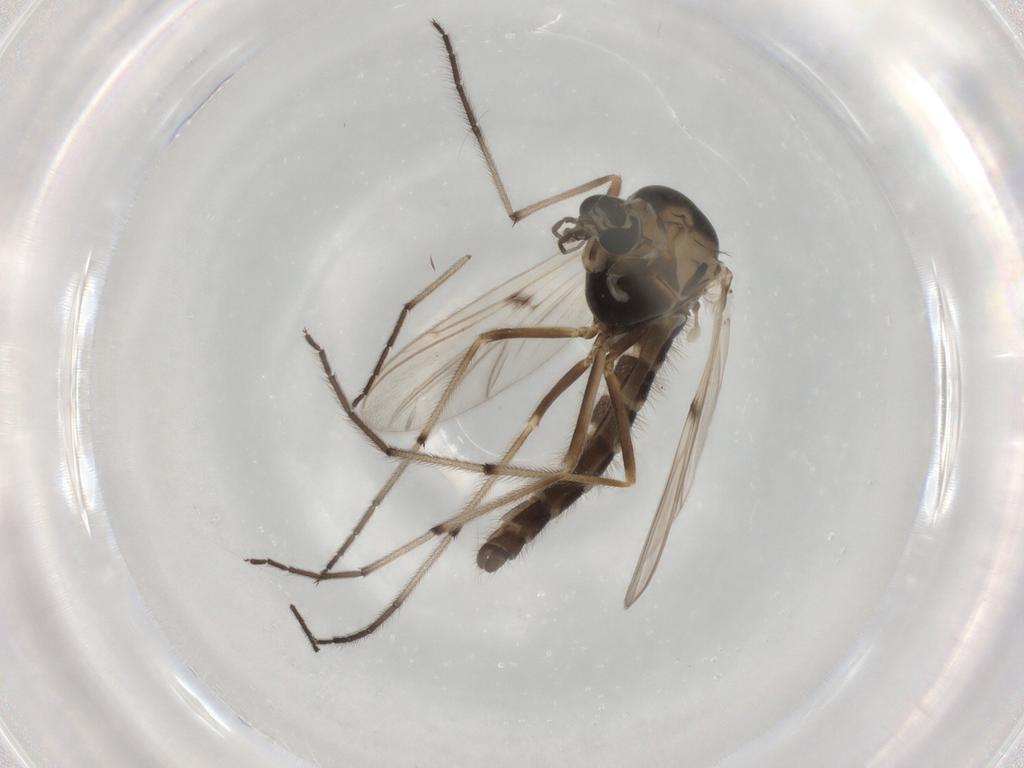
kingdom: Animalia
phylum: Arthropoda
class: Insecta
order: Diptera
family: Chironomidae
